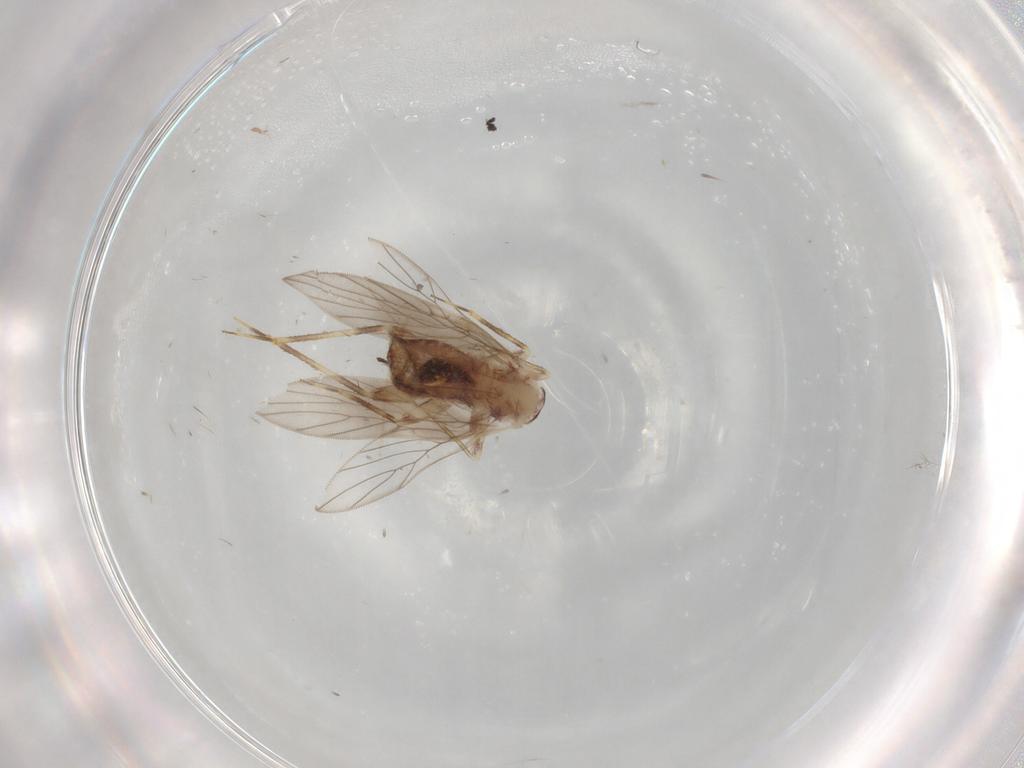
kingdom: Animalia
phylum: Arthropoda
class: Insecta
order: Psocodea
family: Lepidopsocidae
